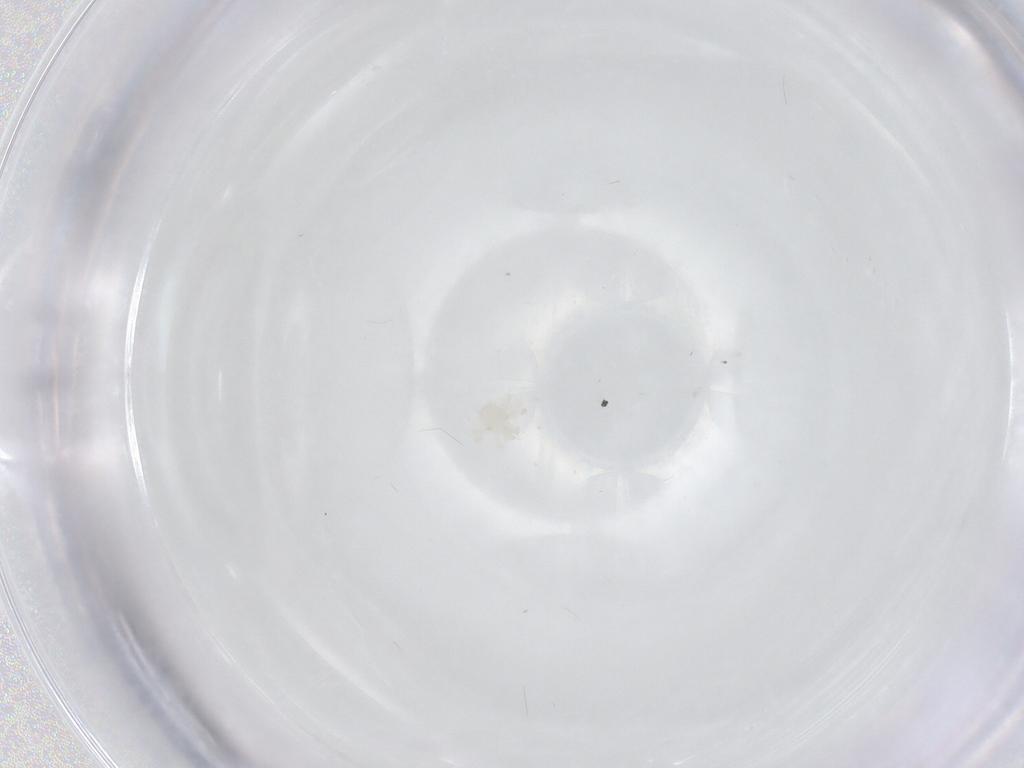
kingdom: Animalia
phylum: Arthropoda
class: Arachnida
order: Trombidiformes
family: Anystidae
